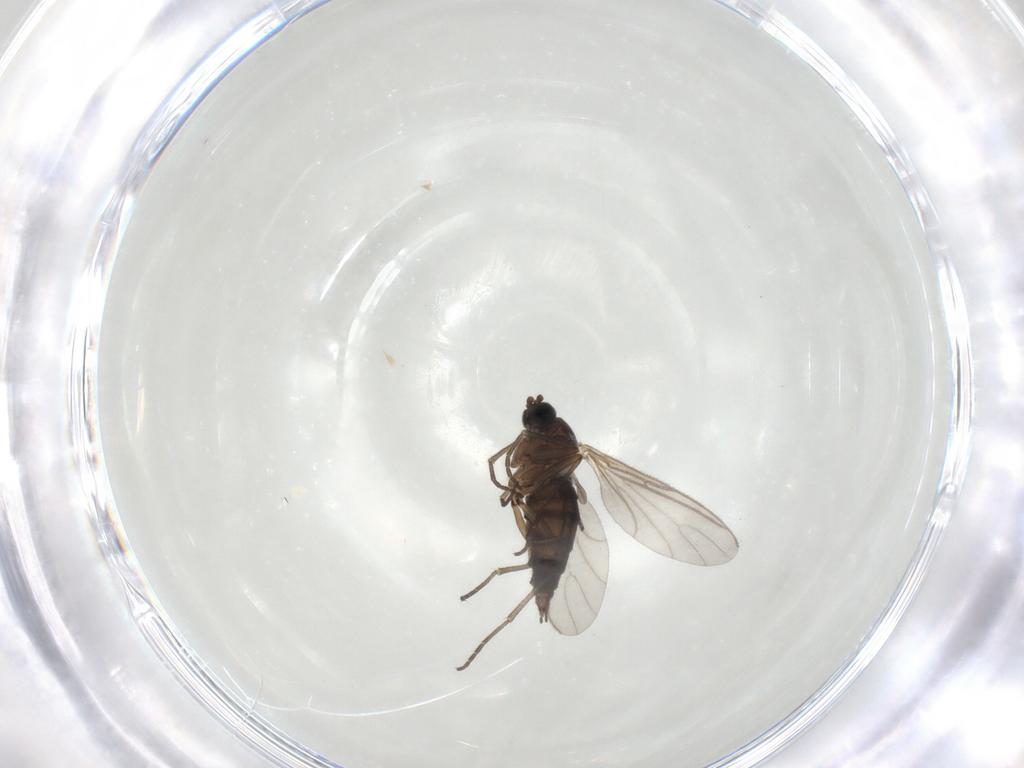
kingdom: Animalia
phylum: Arthropoda
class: Insecta
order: Diptera
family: Sciaridae
